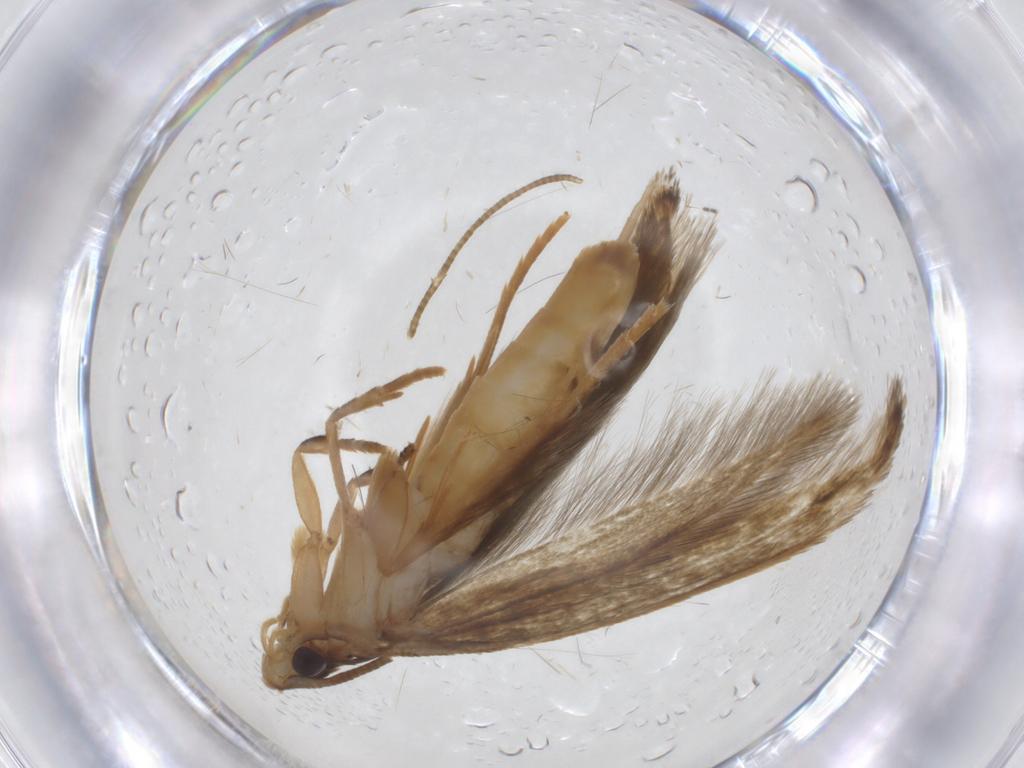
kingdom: Animalia
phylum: Arthropoda
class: Insecta
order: Lepidoptera
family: Tineidae
